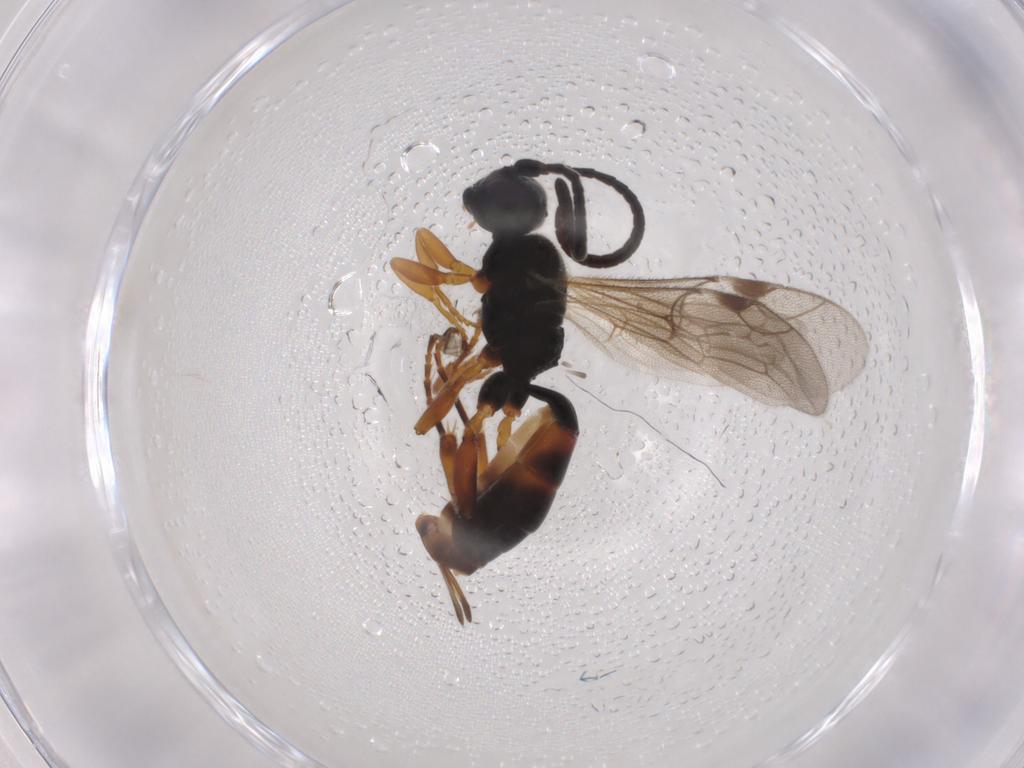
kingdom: Animalia
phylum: Arthropoda
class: Insecta
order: Hymenoptera
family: Ichneumonidae
